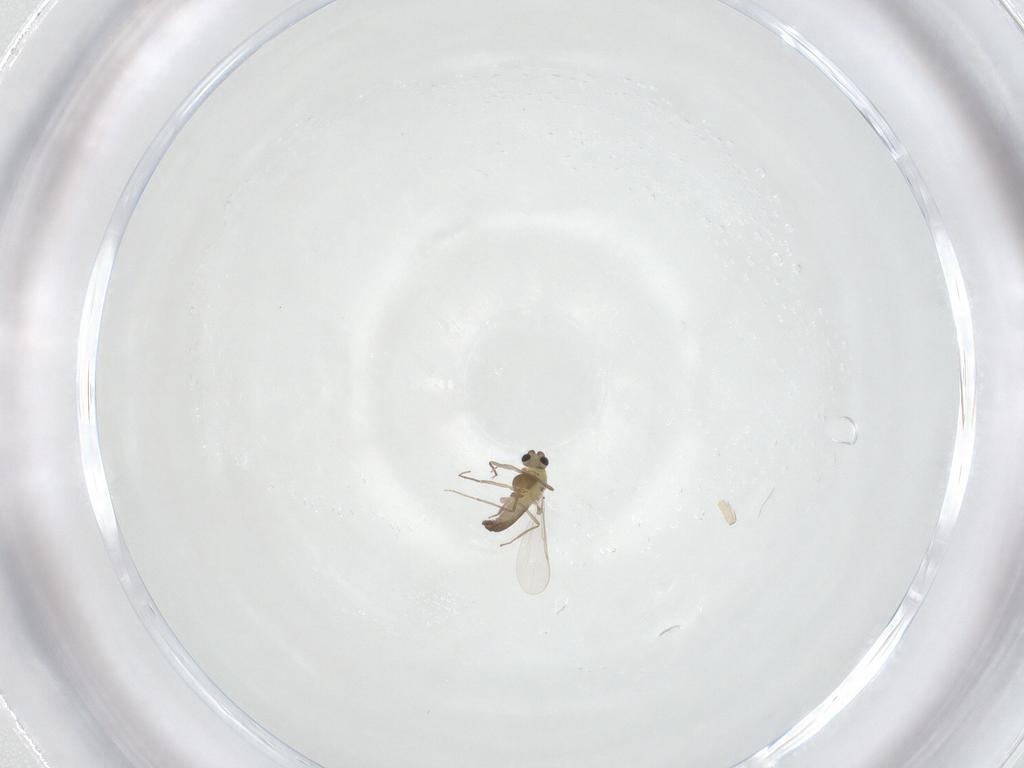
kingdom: Animalia
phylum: Arthropoda
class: Insecta
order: Diptera
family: Chironomidae
